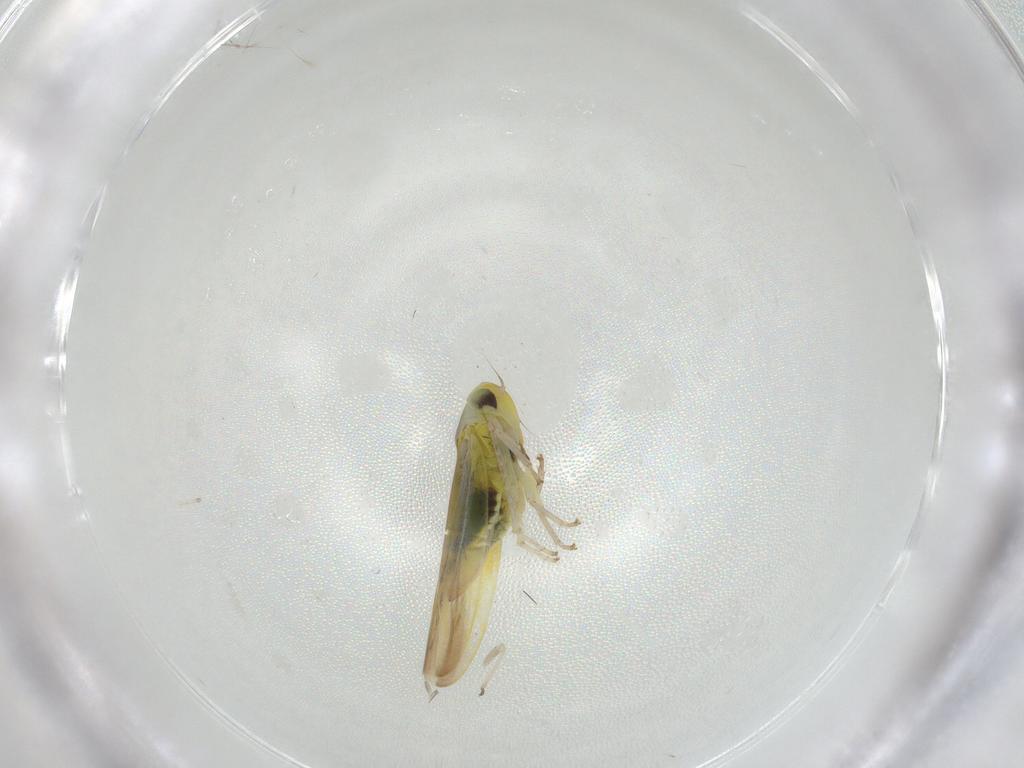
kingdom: Animalia
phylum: Arthropoda
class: Insecta
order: Hemiptera
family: Cicadellidae
